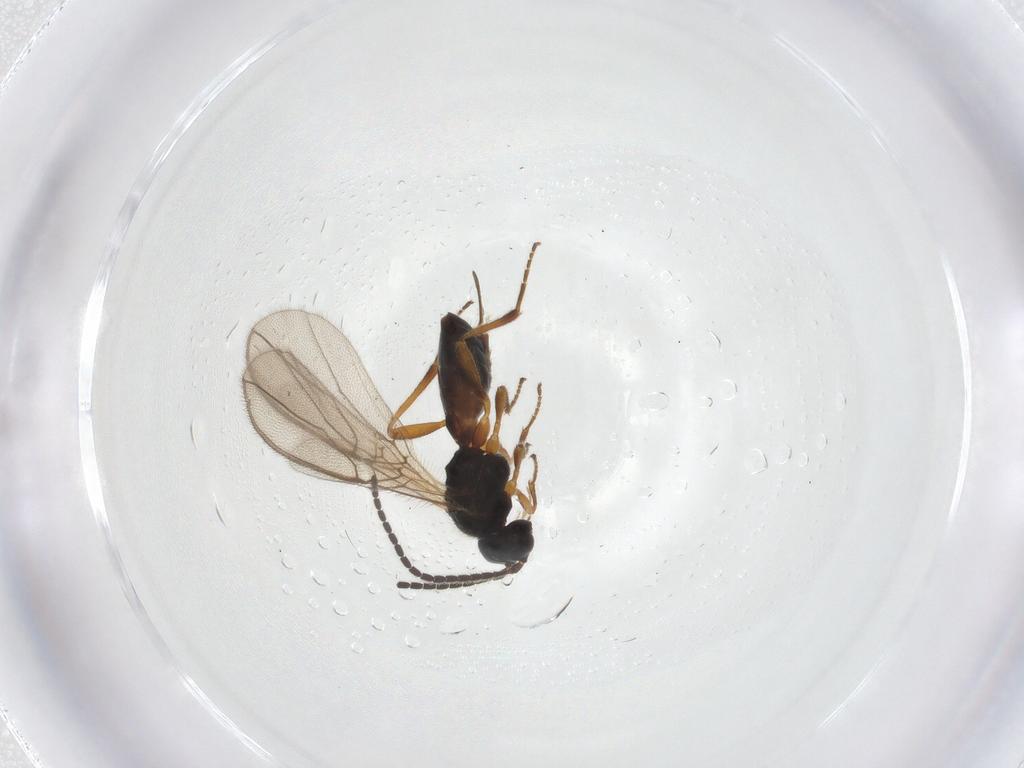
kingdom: Animalia
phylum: Arthropoda
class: Insecta
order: Hymenoptera
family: Braconidae
